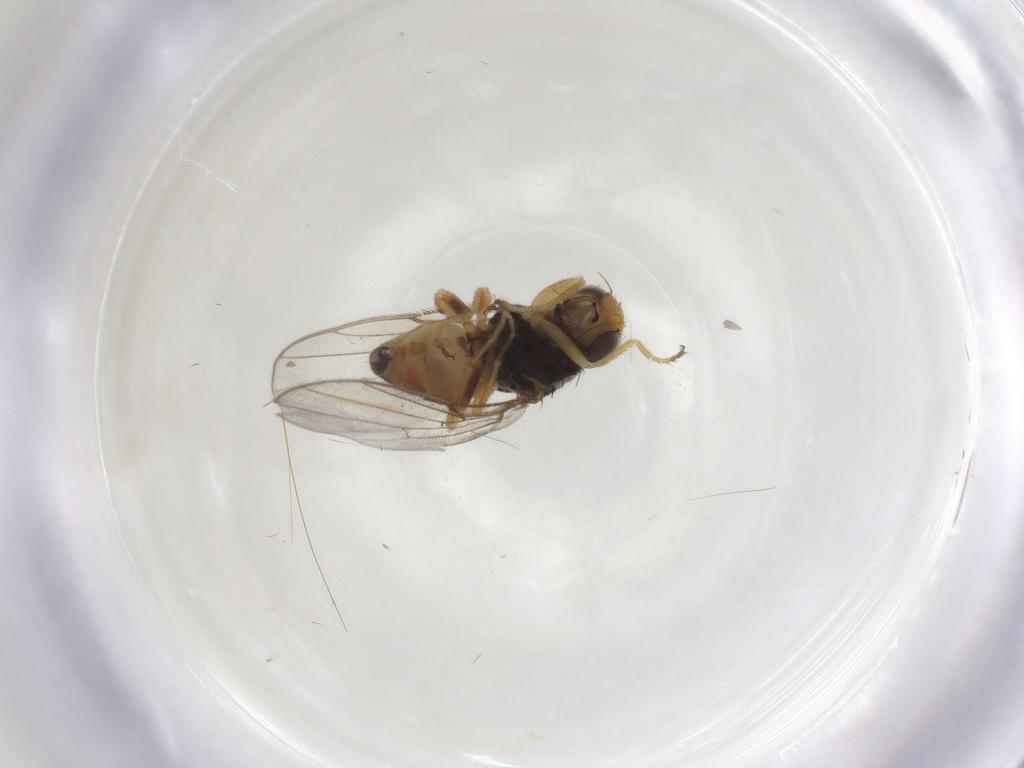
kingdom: Animalia
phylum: Arthropoda
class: Insecta
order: Diptera
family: Chloropidae
